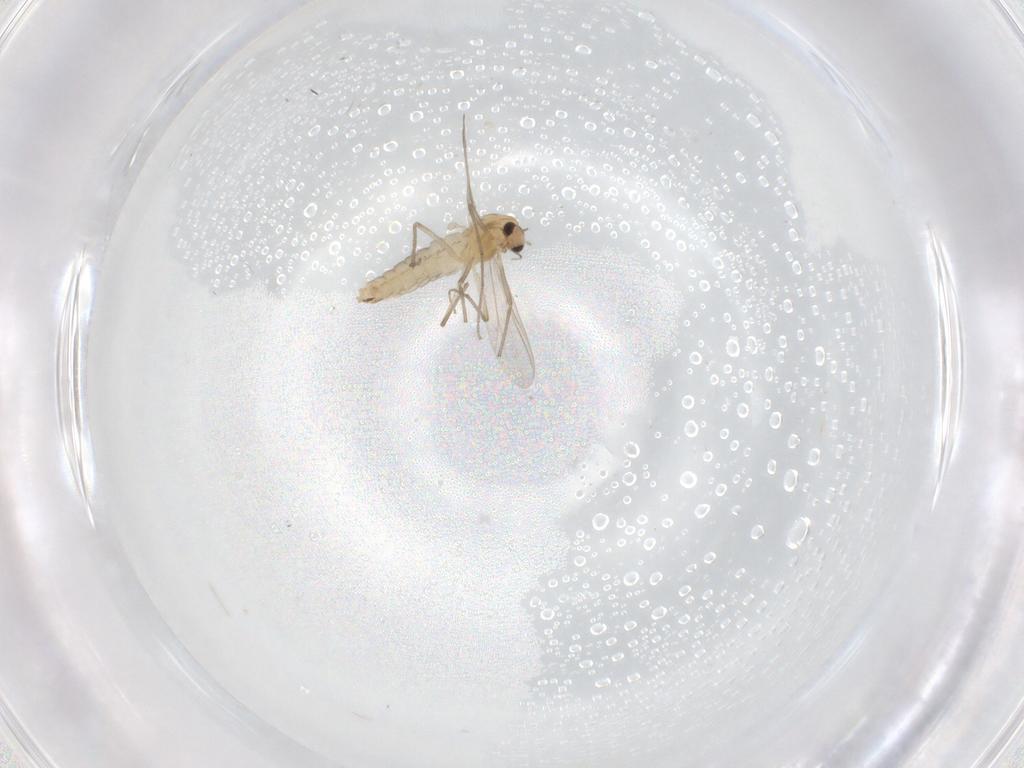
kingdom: Animalia
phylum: Arthropoda
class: Insecta
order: Diptera
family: Chironomidae
